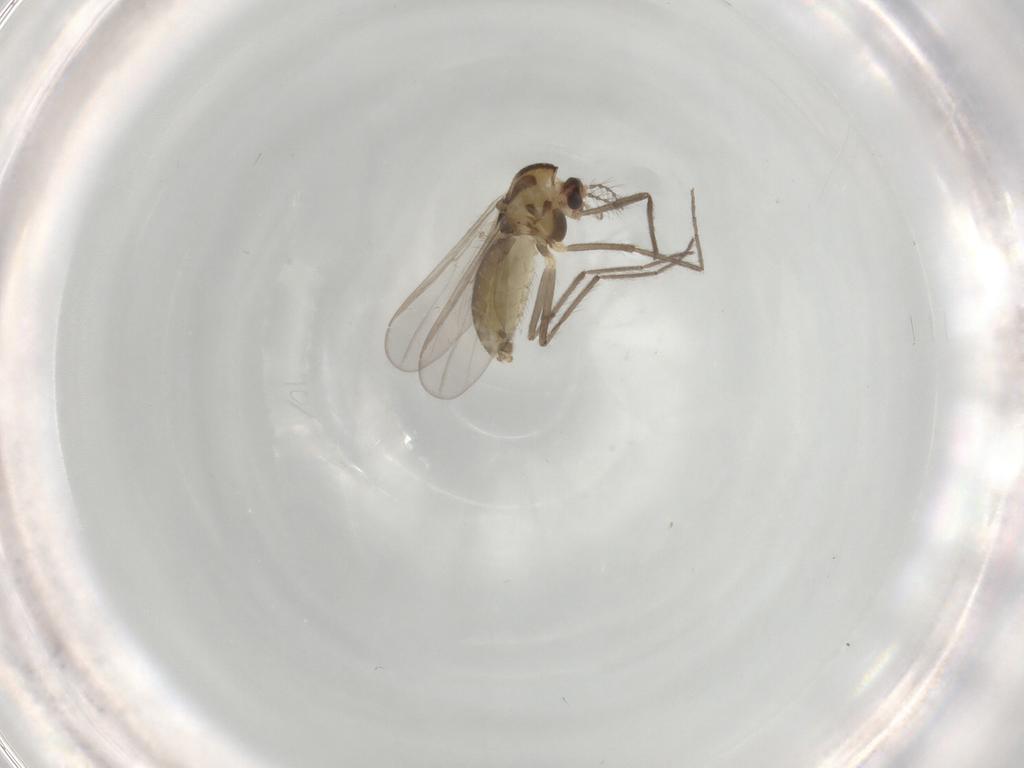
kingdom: Animalia
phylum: Arthropoda
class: Insecta
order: Diptera
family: Chironomidae
